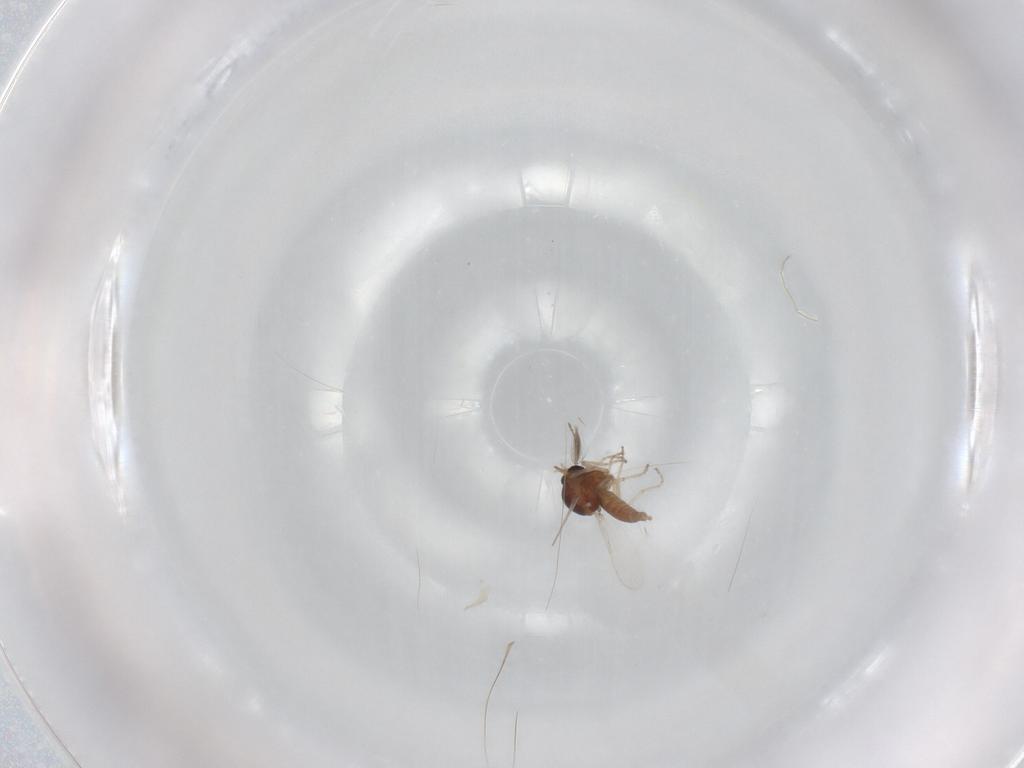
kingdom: Animalia
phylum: Arthropoda
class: Insecta
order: Diptera
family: Ceratopogonidae
